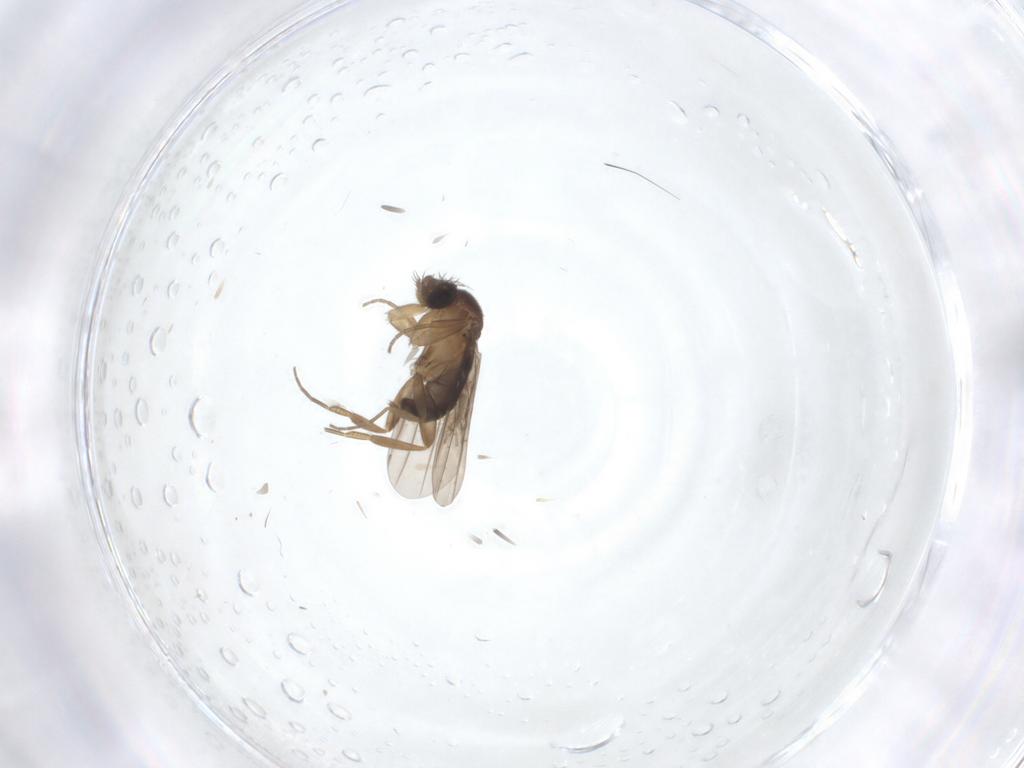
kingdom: Animalia
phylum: Arthropoda
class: Insecta
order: Diptera
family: Phoridae
